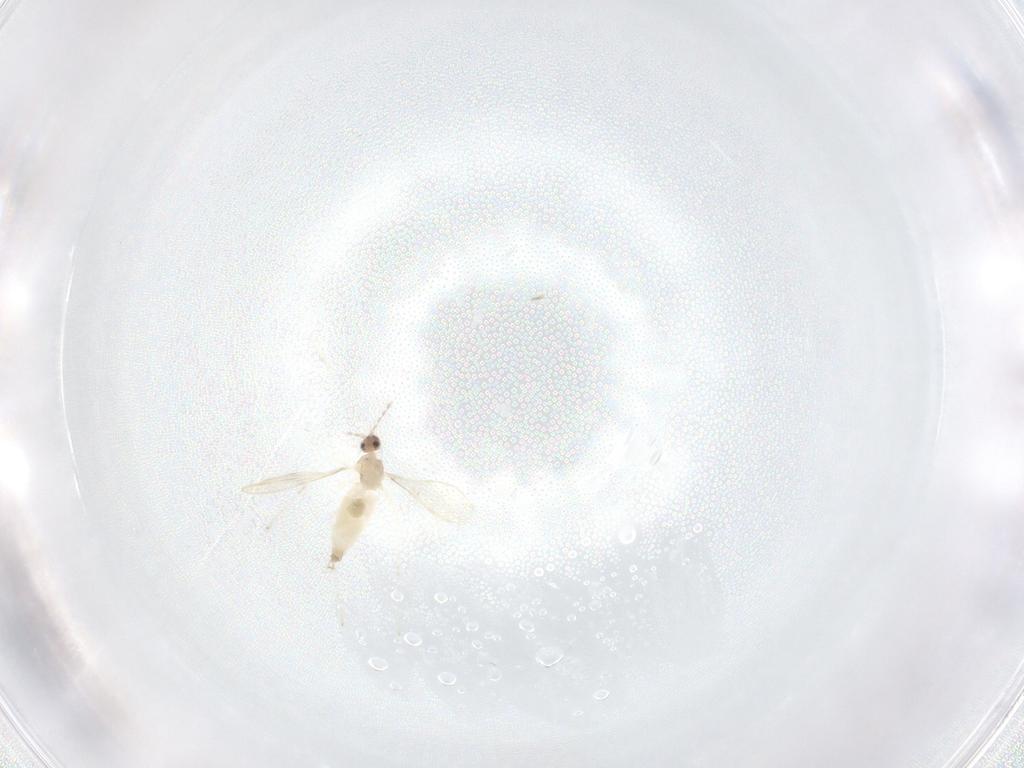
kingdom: Animalia
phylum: Arthropoda
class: Insecta
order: Diptera
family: Cecidomyiidae
